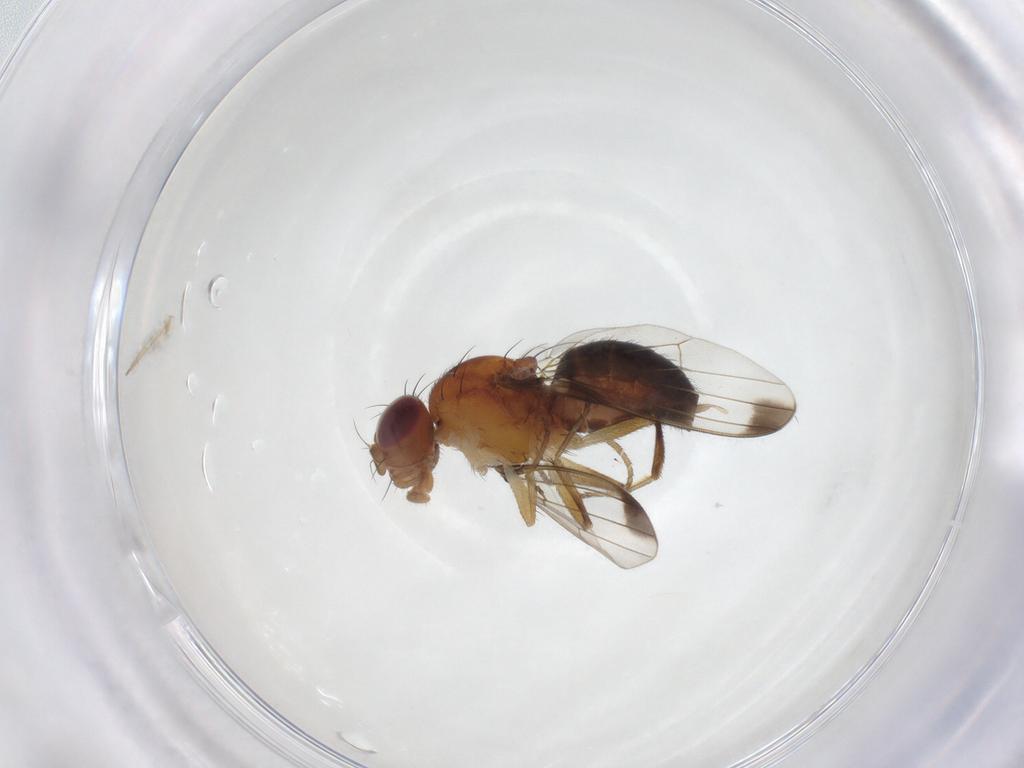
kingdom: Animalia
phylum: Arthropoda
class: Insecta
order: Diptera
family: Piophilidae
